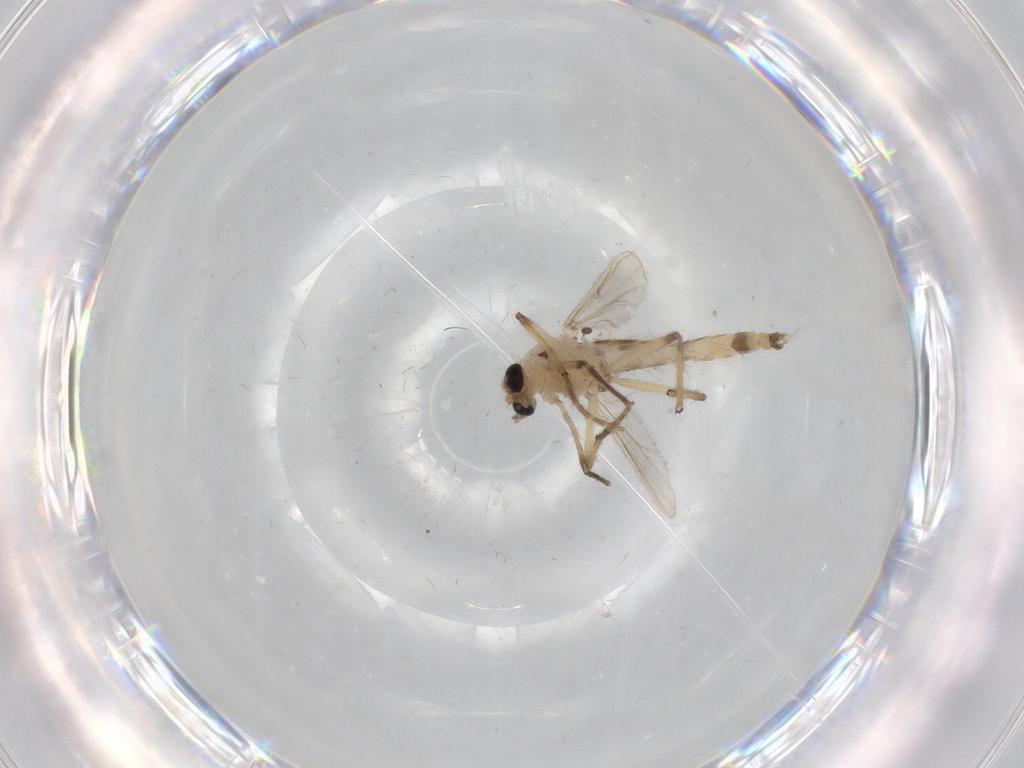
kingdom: Animalia
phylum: Arthropoda
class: Insecta
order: Diptera
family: Chironomidae
